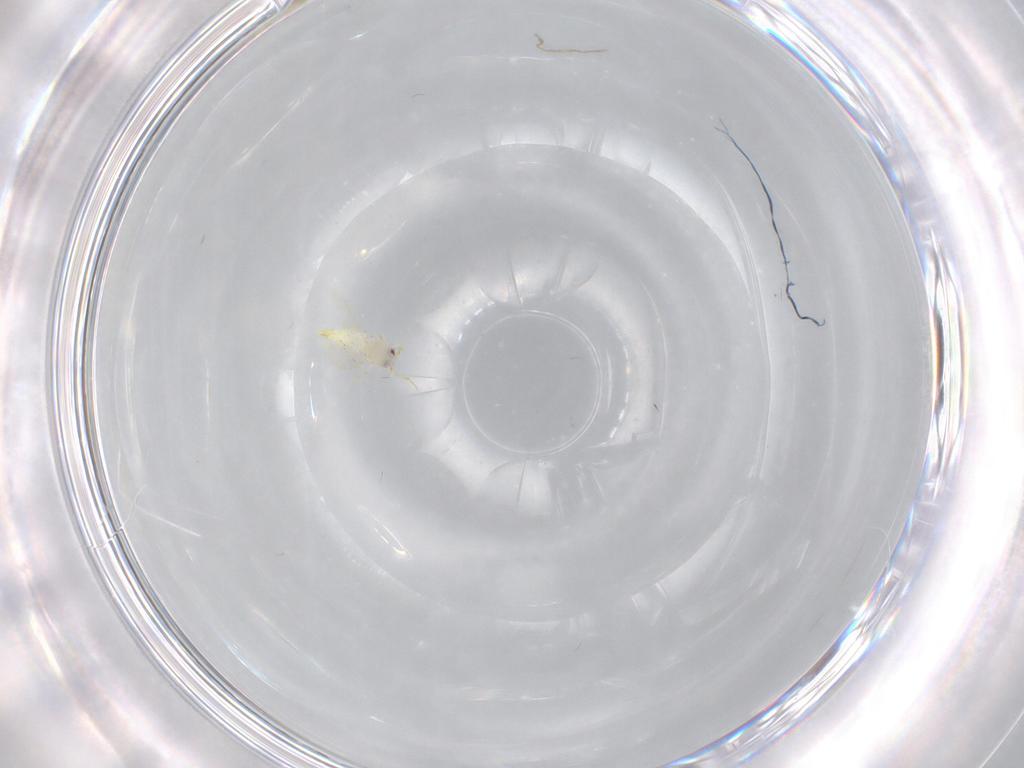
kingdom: Animalia
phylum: Arthropoda
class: Insecta
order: Hemiptera
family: Aleyrodidae
